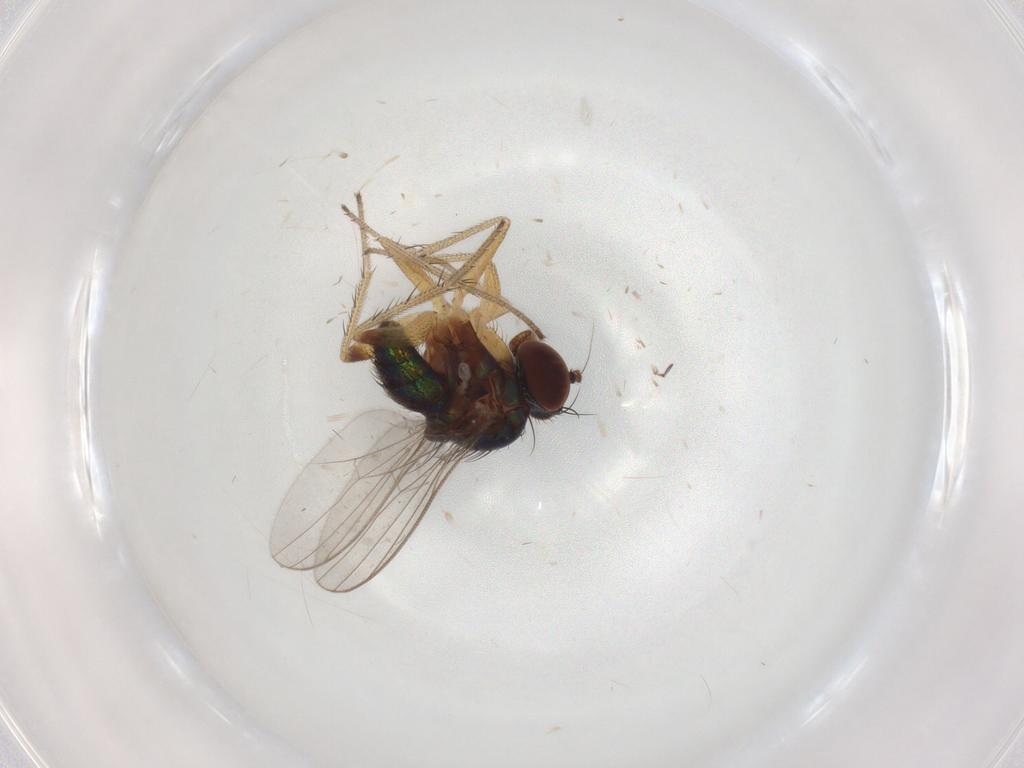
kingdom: Animalia
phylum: Arthropoda
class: Insecta
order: Diptera
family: Dolichopodidae
